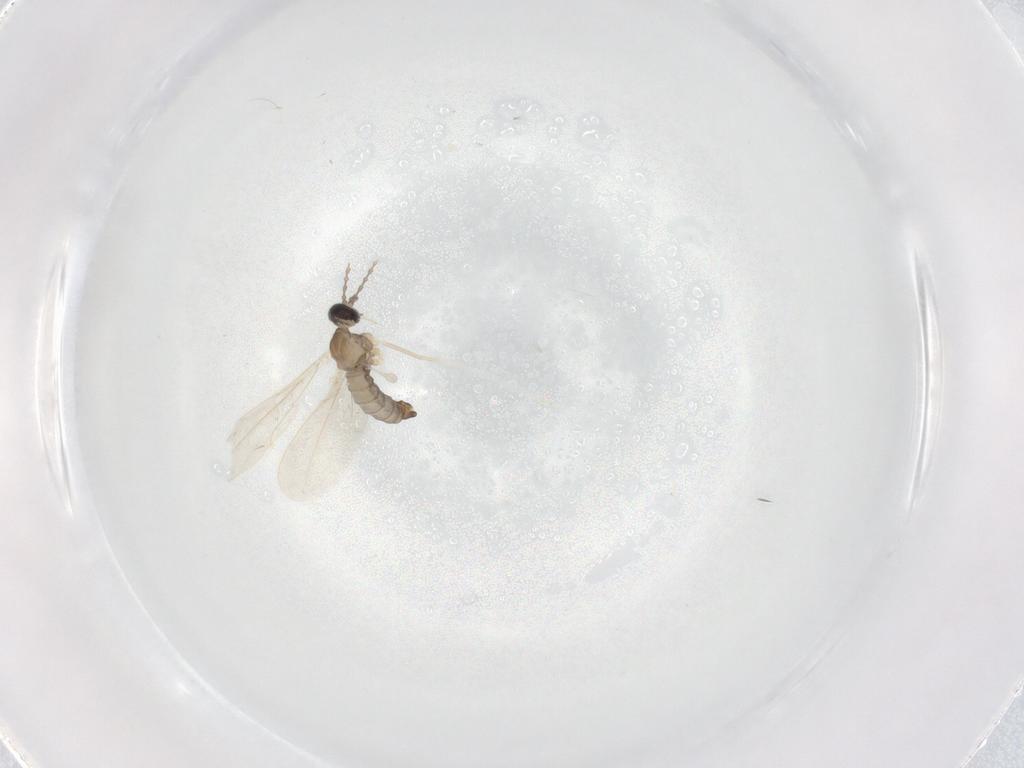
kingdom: Animalia
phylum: Arthropoda
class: Insecta
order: Diptera
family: Cecidomyiidae
